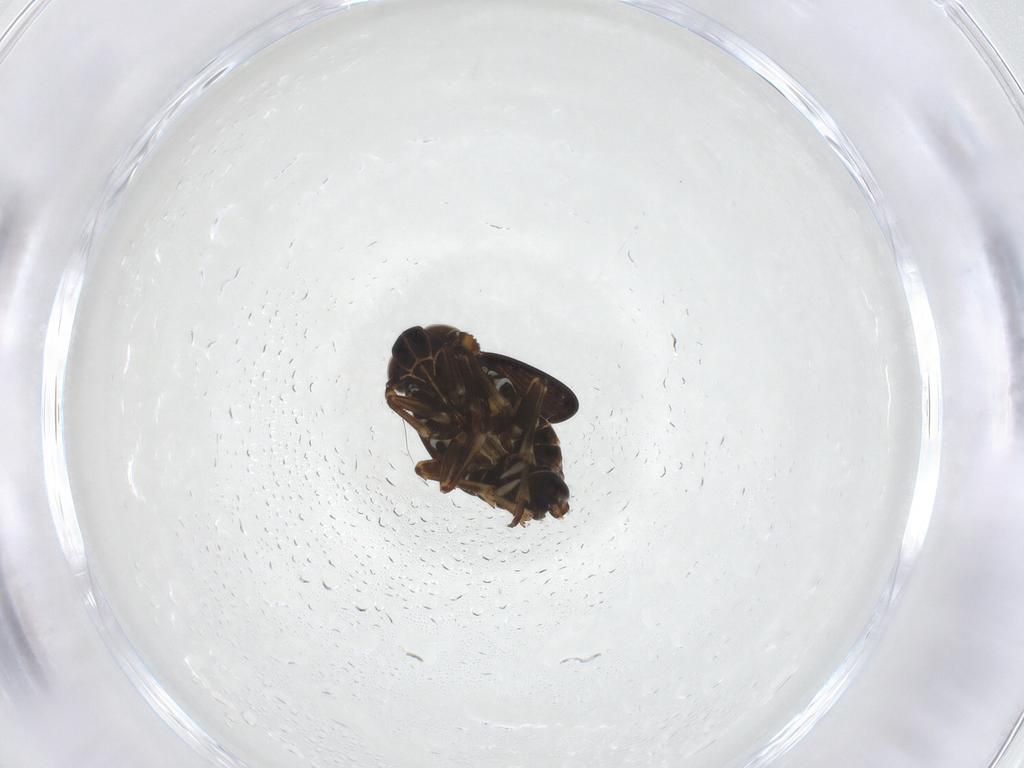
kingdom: Animalia
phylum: Arthropoda
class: Insecta
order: Hemiptera
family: Delphacidae
